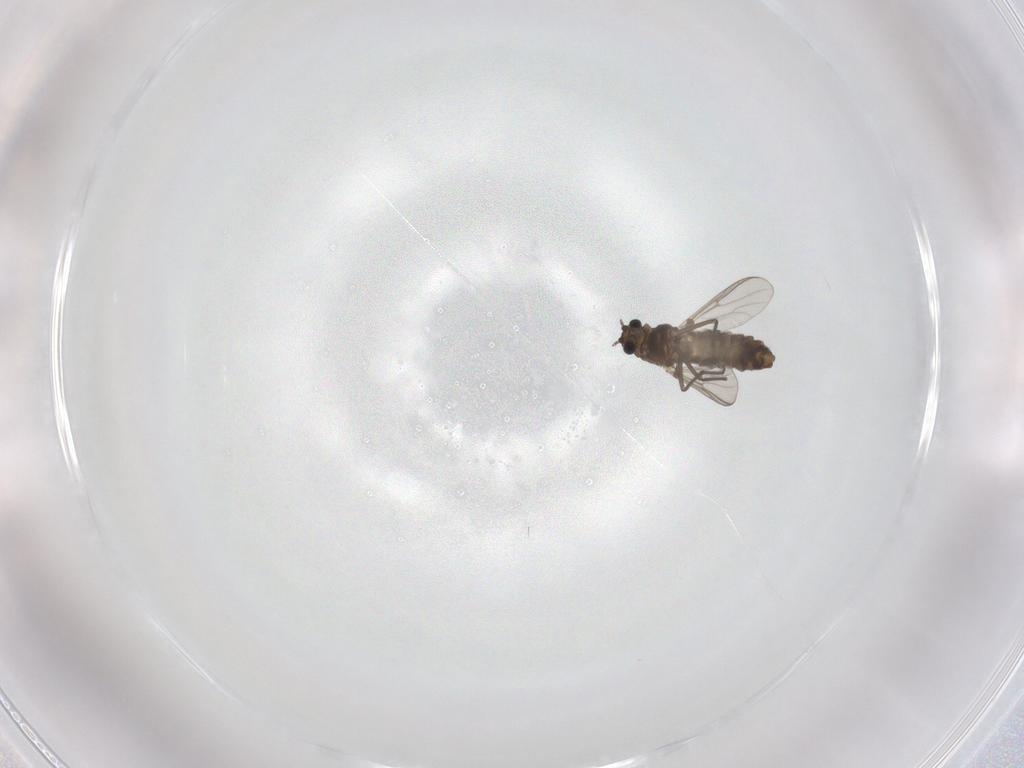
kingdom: Animalia
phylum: Arthropoda
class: Insecta
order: Diptera
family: Chironomidae
